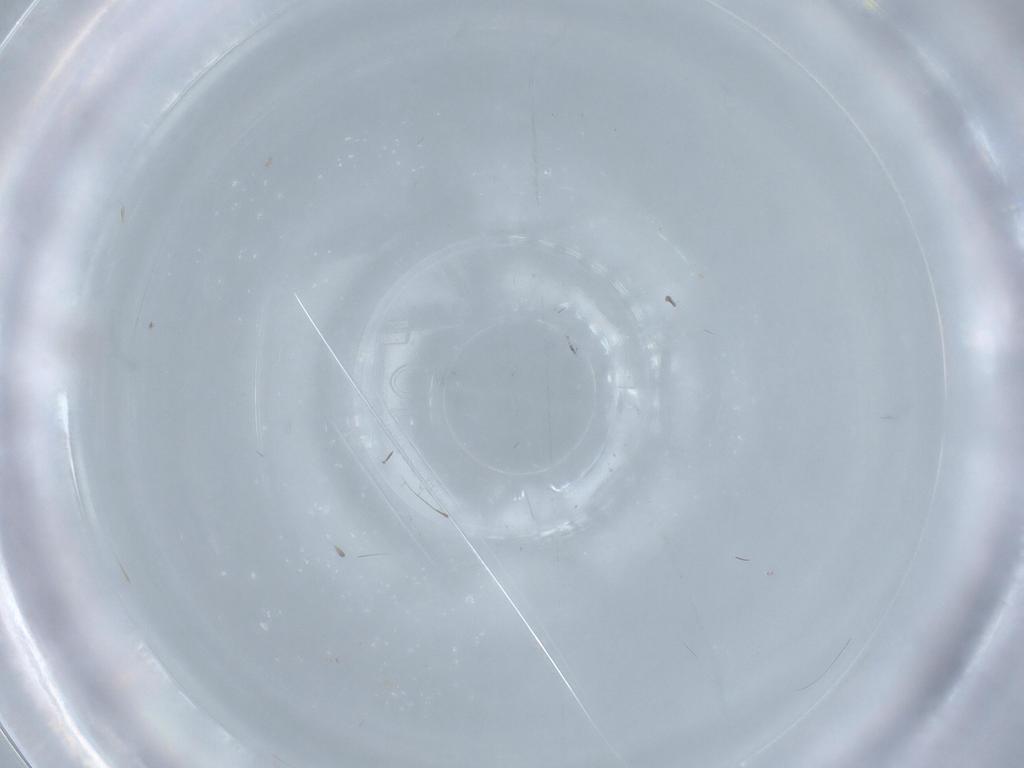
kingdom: Animalia
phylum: Arthropoda
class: Insecta
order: Hymenoptera
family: Mymaridae
